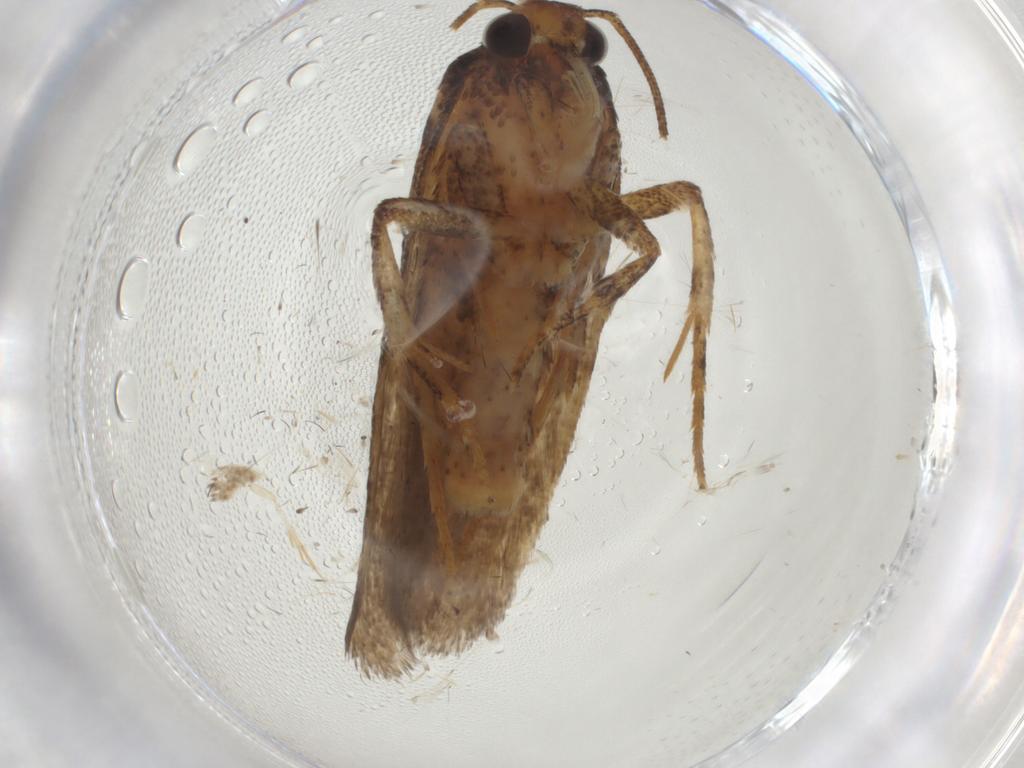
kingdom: Animalia
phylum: Arthropoda
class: Insecta
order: Lepidoptera
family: Gelechiidae
